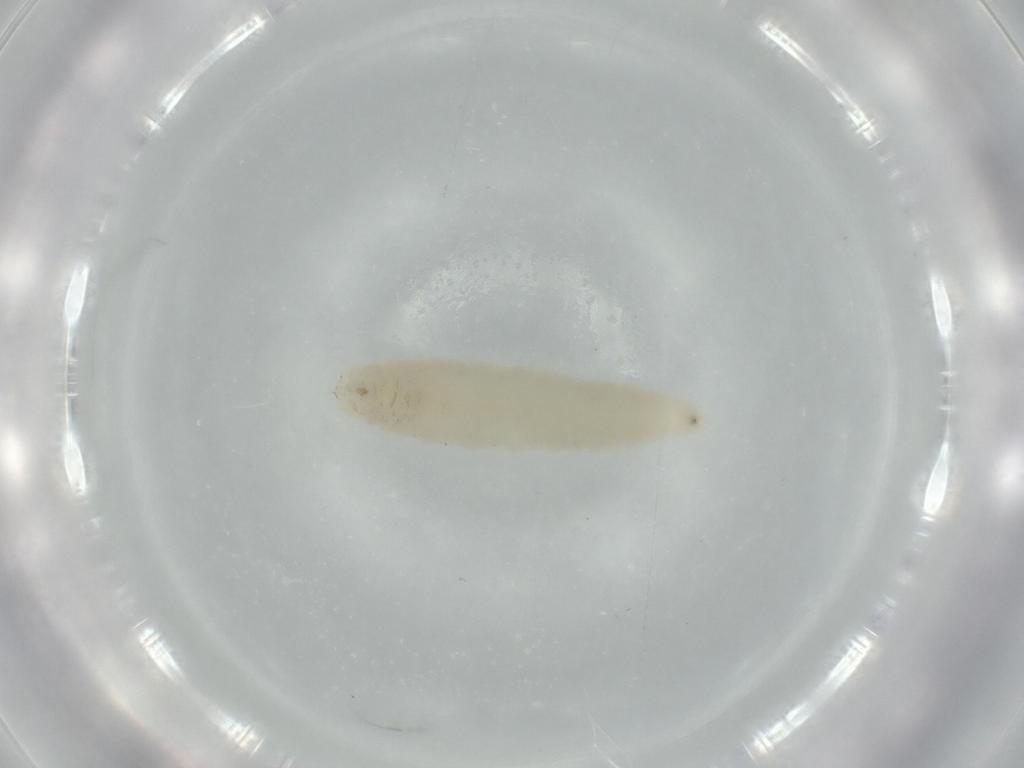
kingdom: Animalia
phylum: Arthropoda
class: Insecta
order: Diptera
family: Phoridae
